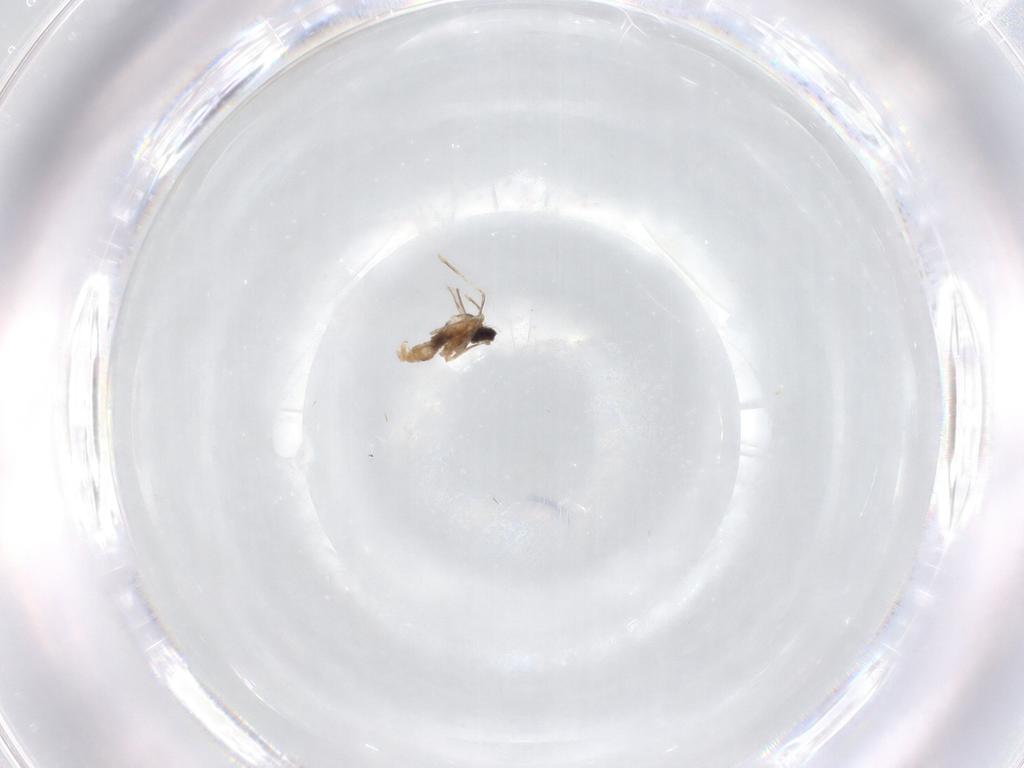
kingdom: Animalia
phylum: Arthropoda
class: Insecta
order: Diptera
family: Cecidomyiidae
